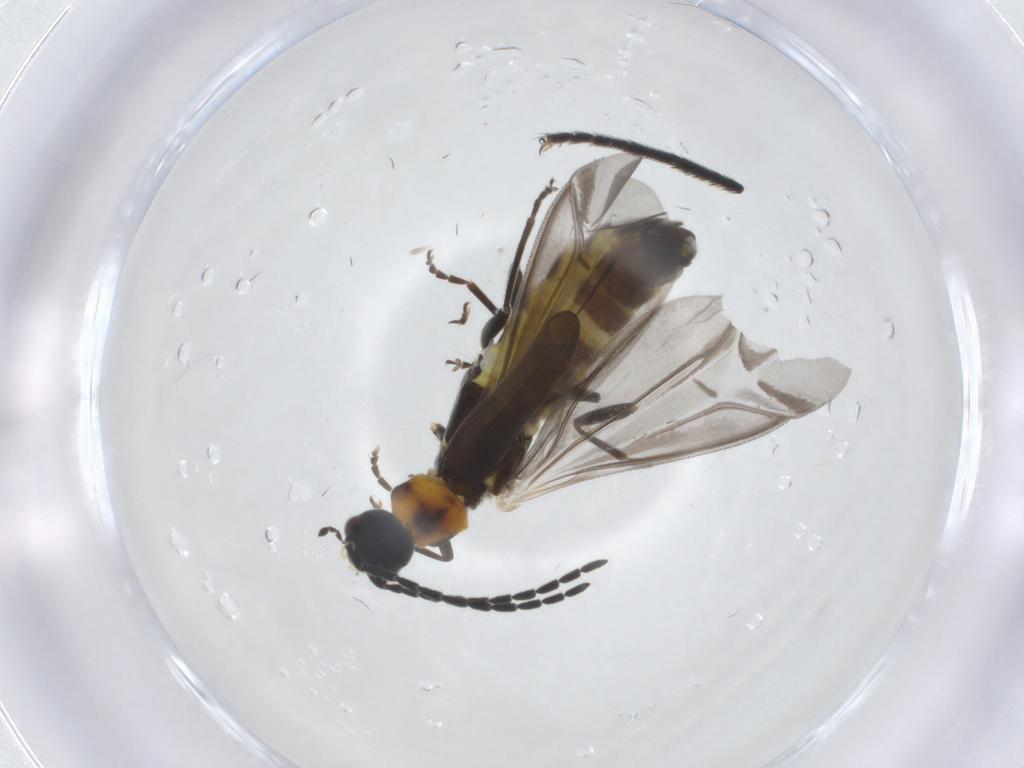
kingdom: Animalia
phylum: Arthropoda
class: Insecta
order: Coleoptera
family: Cantharidae
